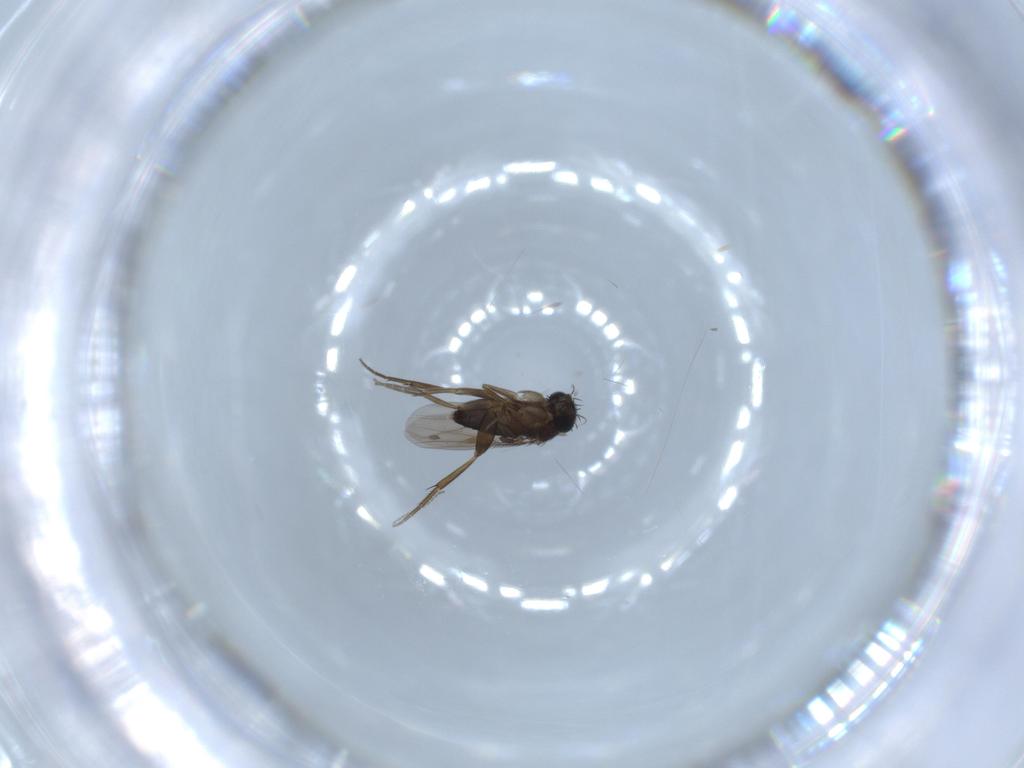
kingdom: Animalia
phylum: Arthropoda
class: Insecta
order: Diptera
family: Phoridae
